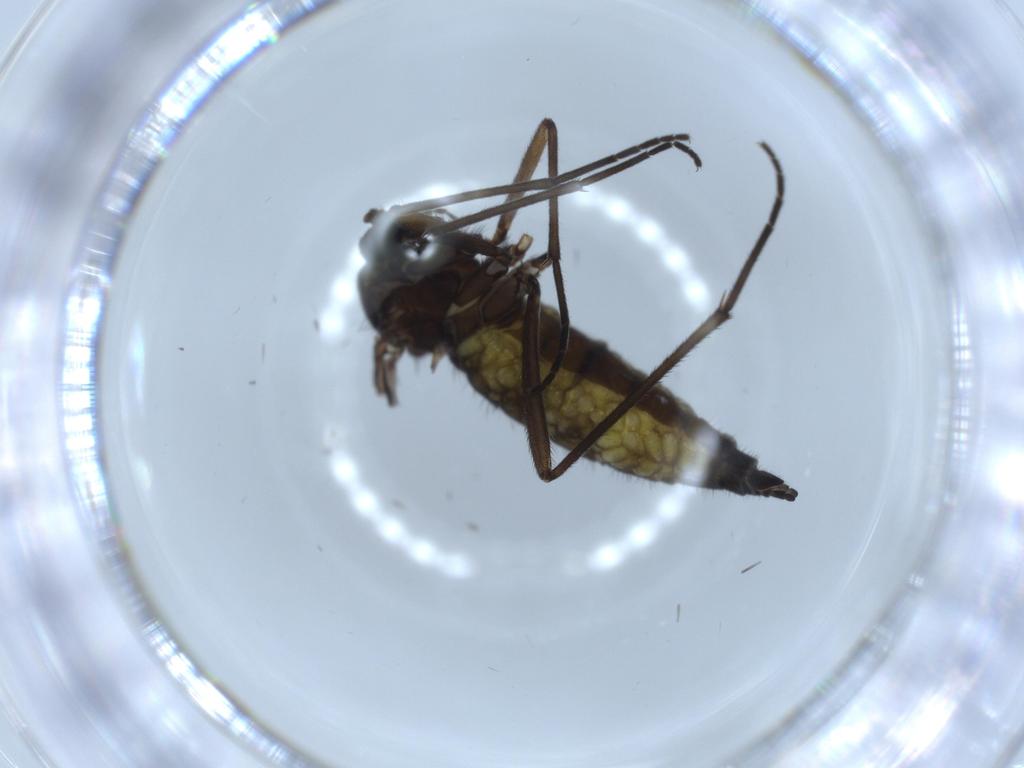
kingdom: Animalia
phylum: Arthropoda
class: Insecta
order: Diptera
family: Sciaridae
